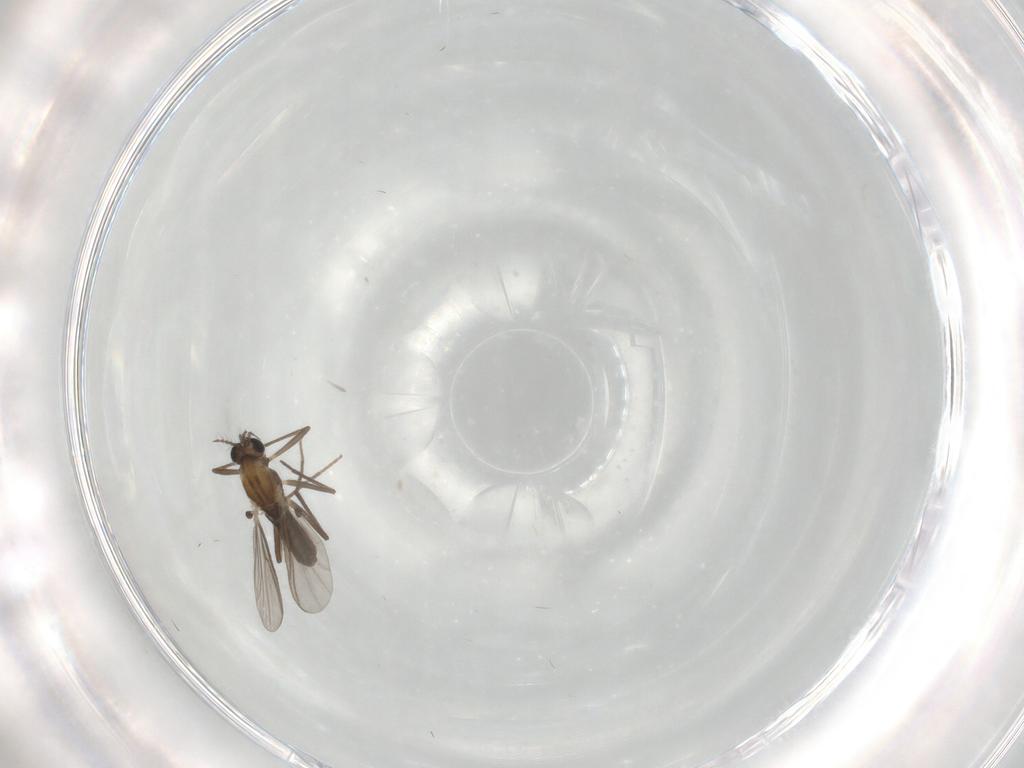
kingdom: Animalia
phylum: Arthropoda
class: Insecta
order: Diptera
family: Chironomidae
